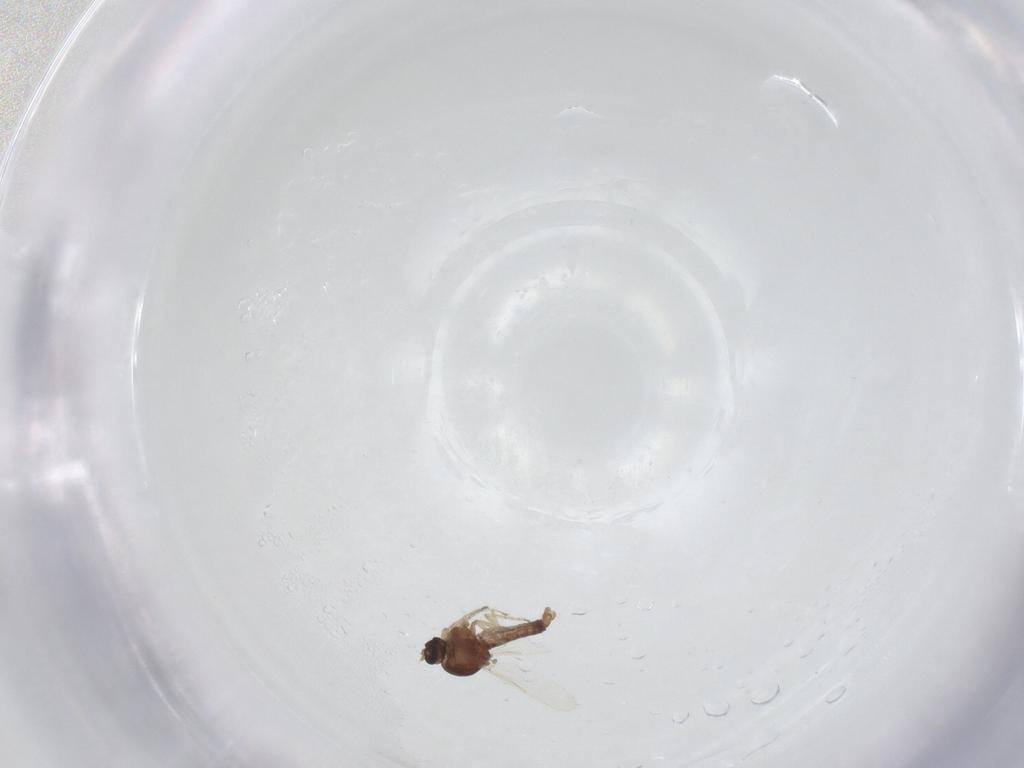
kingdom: Animalia
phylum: Arthropoda
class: Insecta
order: Diptera
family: Ceratopogonidae
